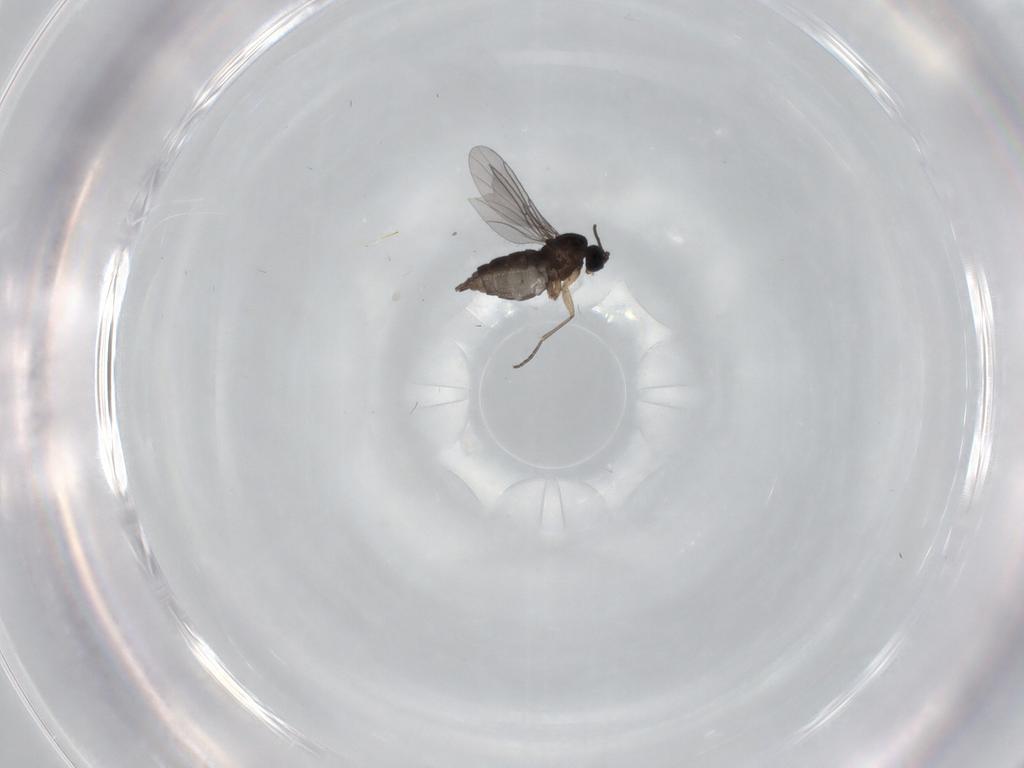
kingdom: Animalia
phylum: Arthropoda
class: Insecta
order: Diptera
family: Sciaridae
